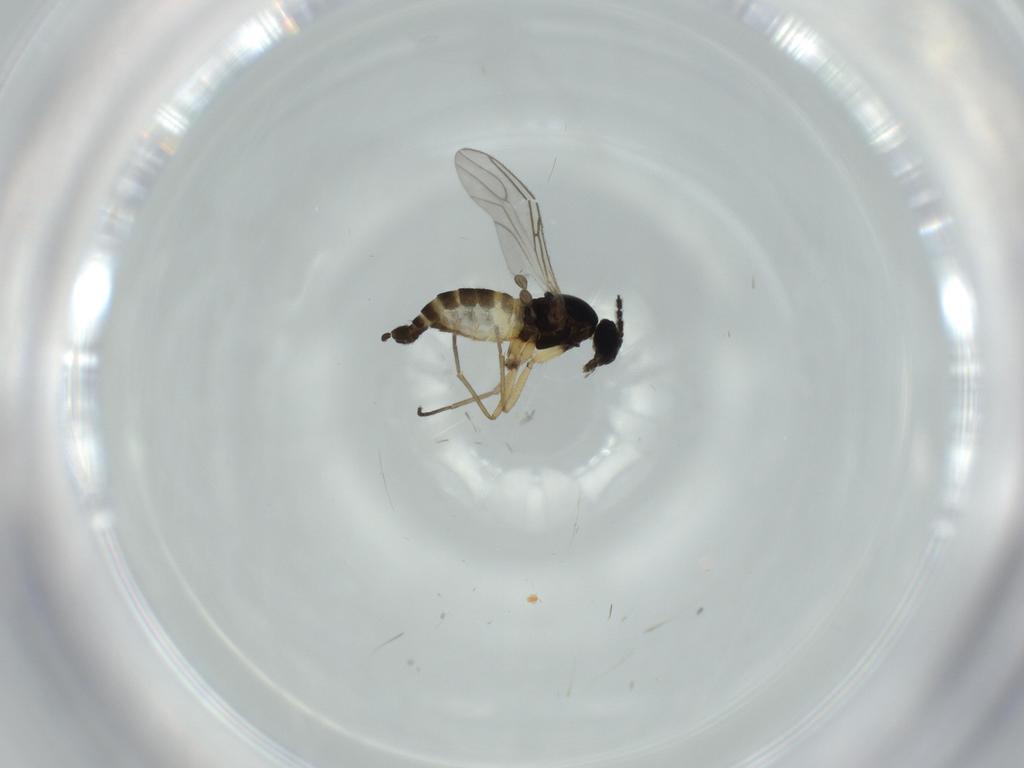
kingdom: Animalia
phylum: Arthropoda
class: Insecta
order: Diptera
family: Sciaridae
